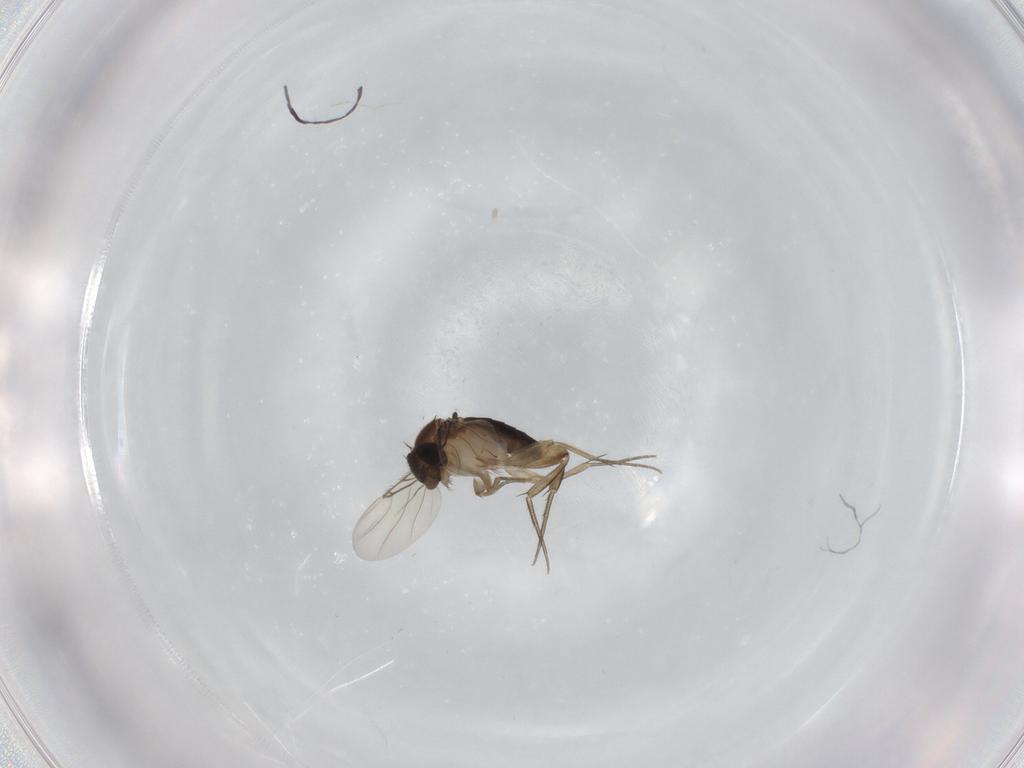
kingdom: Animalia
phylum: Arthropoda
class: Insecta
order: Diptera
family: Phoridae
